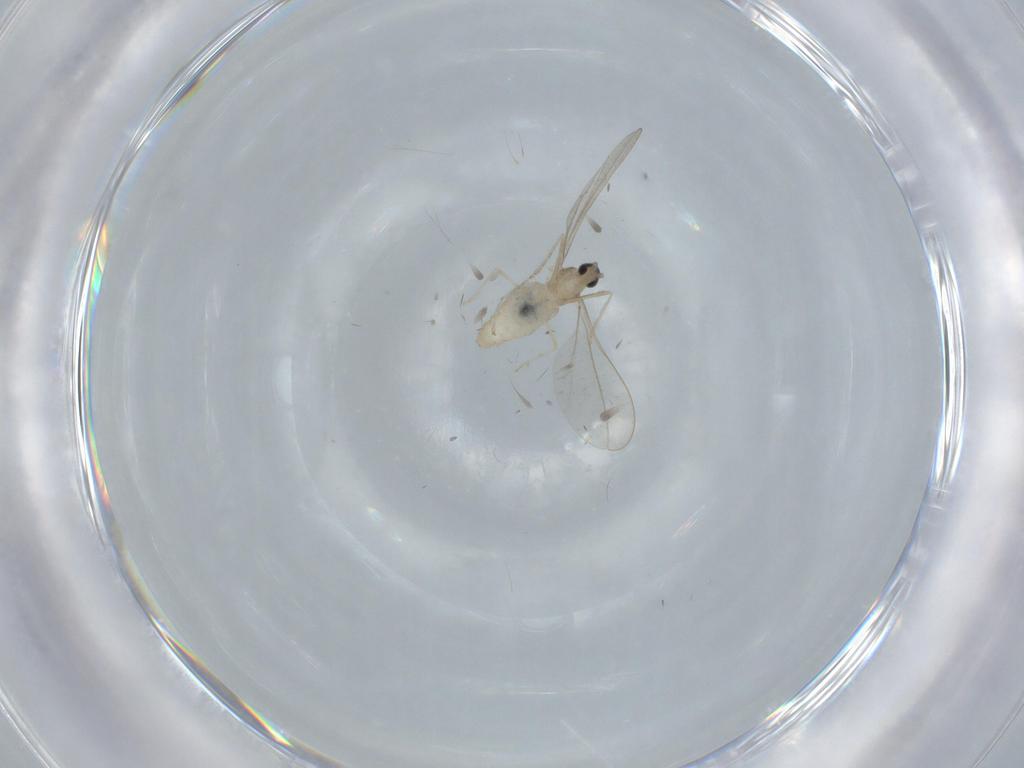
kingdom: Animalia
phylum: Arthropoda
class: Insecta
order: Diptera
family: Cecidomyiidae
